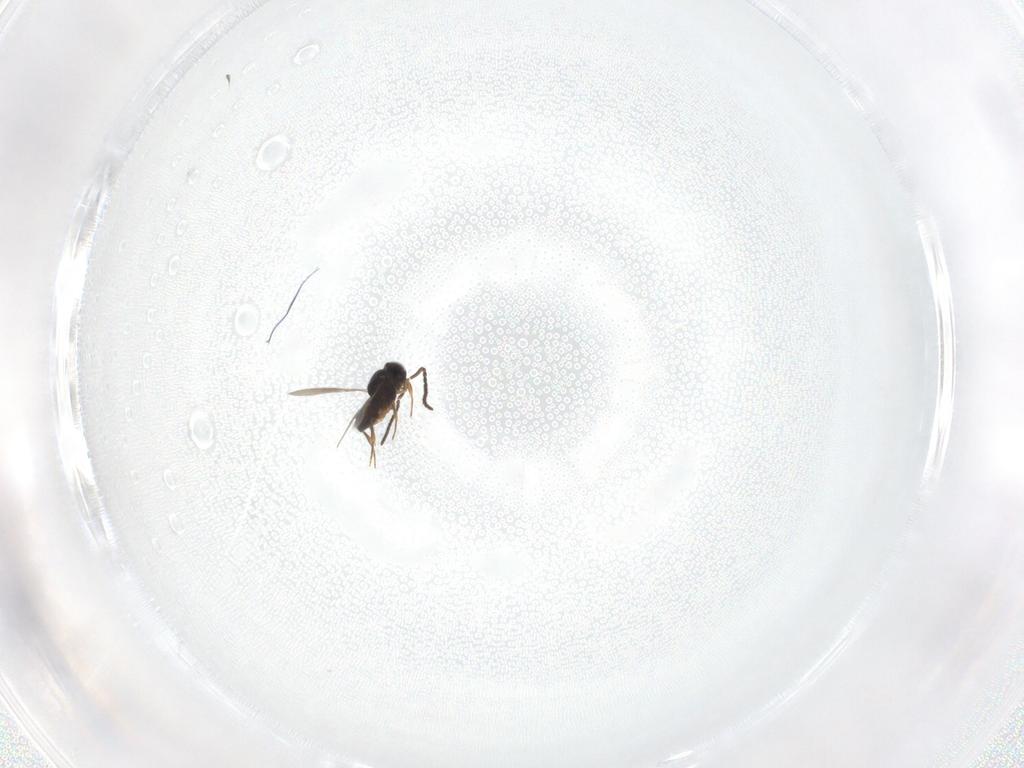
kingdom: Animalia
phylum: Arthropoda
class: Insecta
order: Hymenoptera
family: Scelionidae
